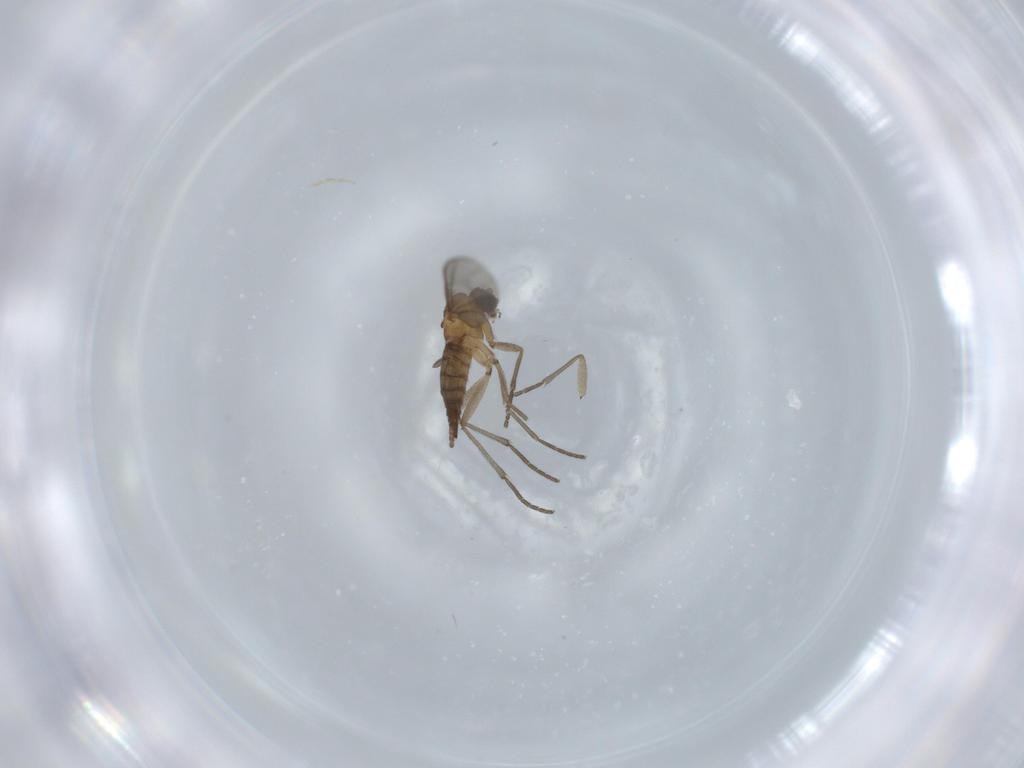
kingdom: Animalia
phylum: Arthropoda
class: Insecta
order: Diptera
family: Sciaridae
